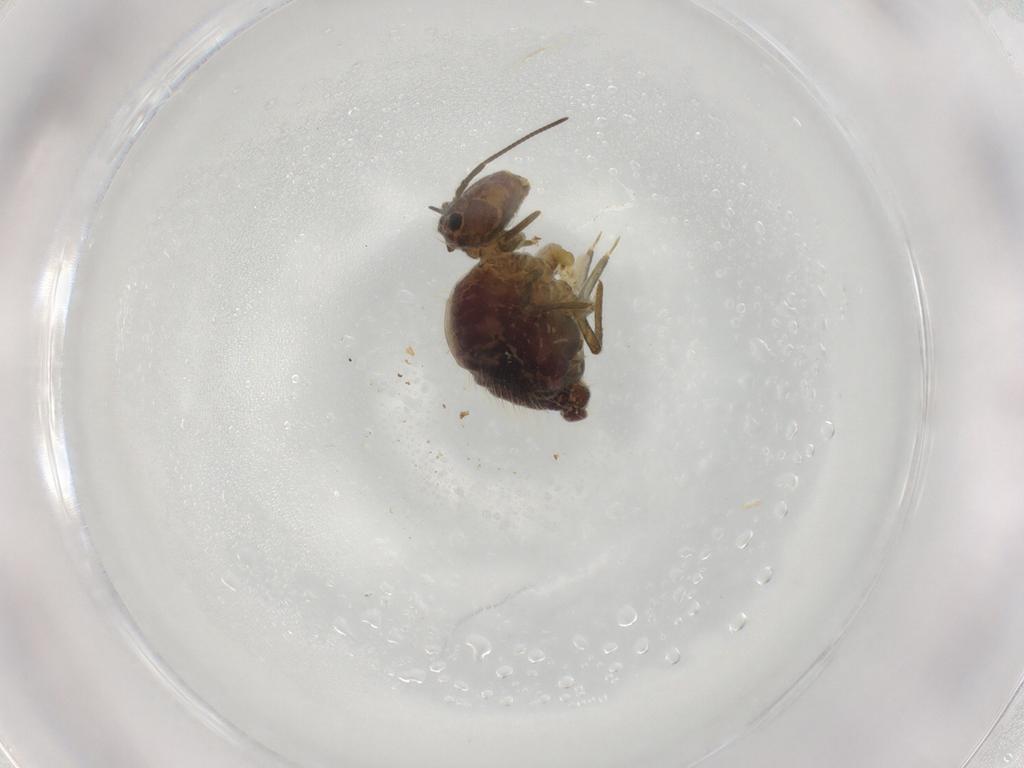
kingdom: Animalia
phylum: Arthropoda
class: Collembola
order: Symphypleona
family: Sminthuridae
